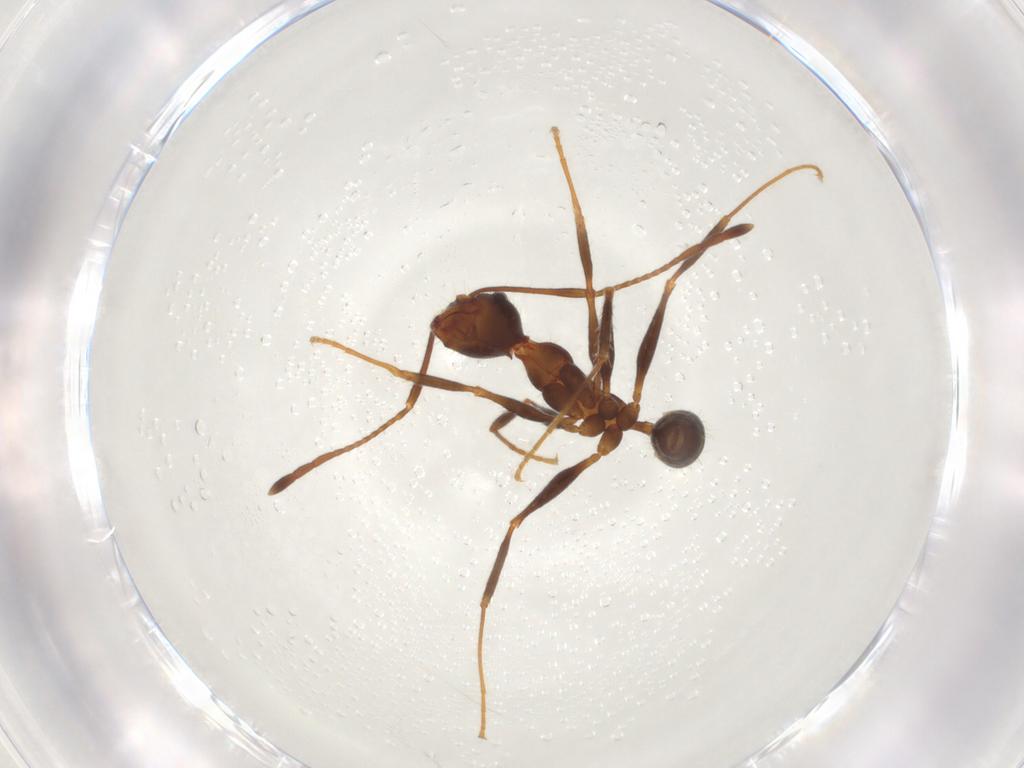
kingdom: Animalia
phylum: Arthropoda
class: Insecta
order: Hymenoptera
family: Formicidae
